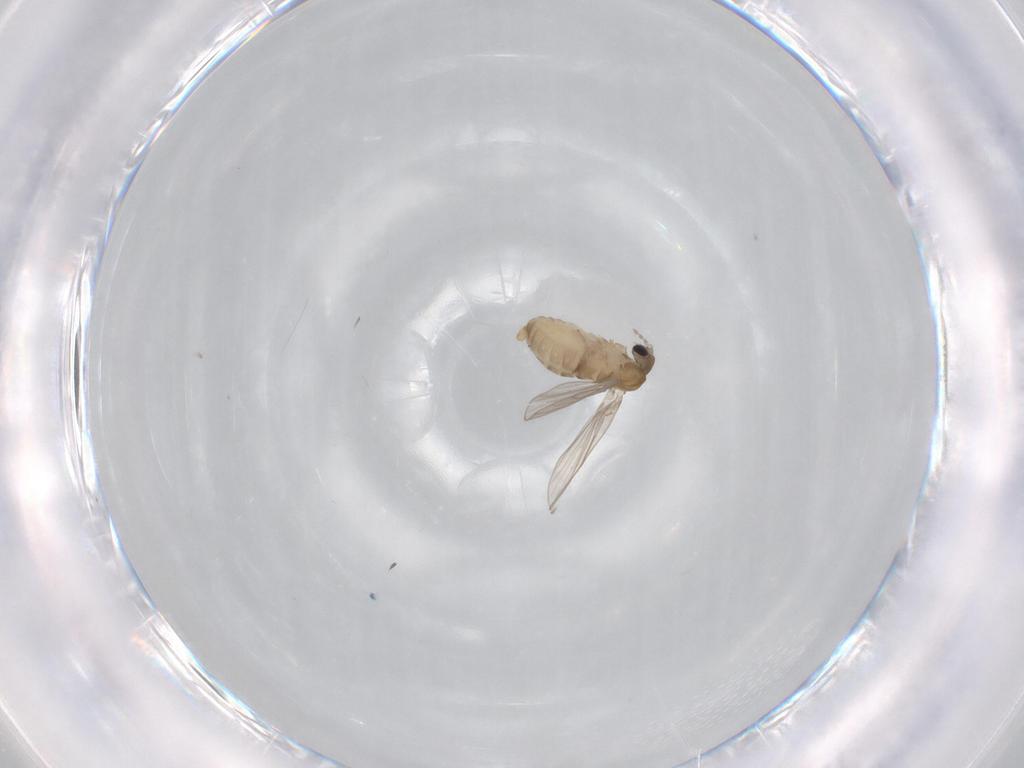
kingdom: Animalia
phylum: Arthropoda
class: Insecta
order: Diptera
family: Psychodidae
